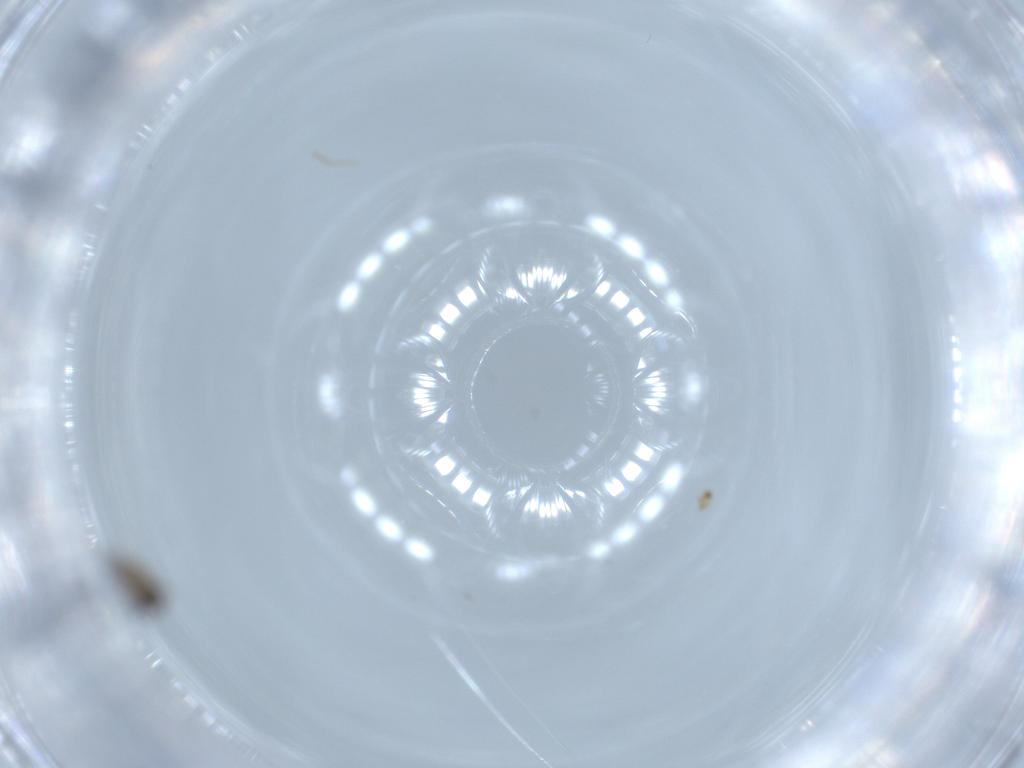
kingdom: Animalia
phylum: Arthropoda
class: Insecta
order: Diptera
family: Cecidomyiidae
